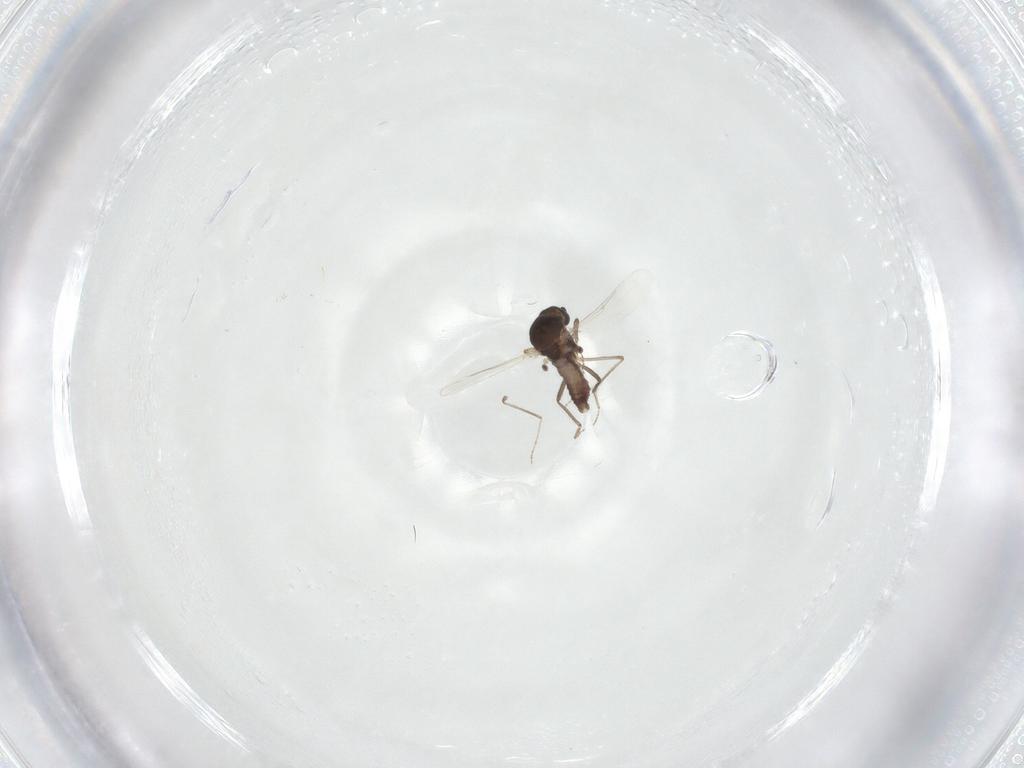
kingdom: Animalia
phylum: Arthropoda
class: Insecta
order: Diptera
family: Ceratopogonidae
